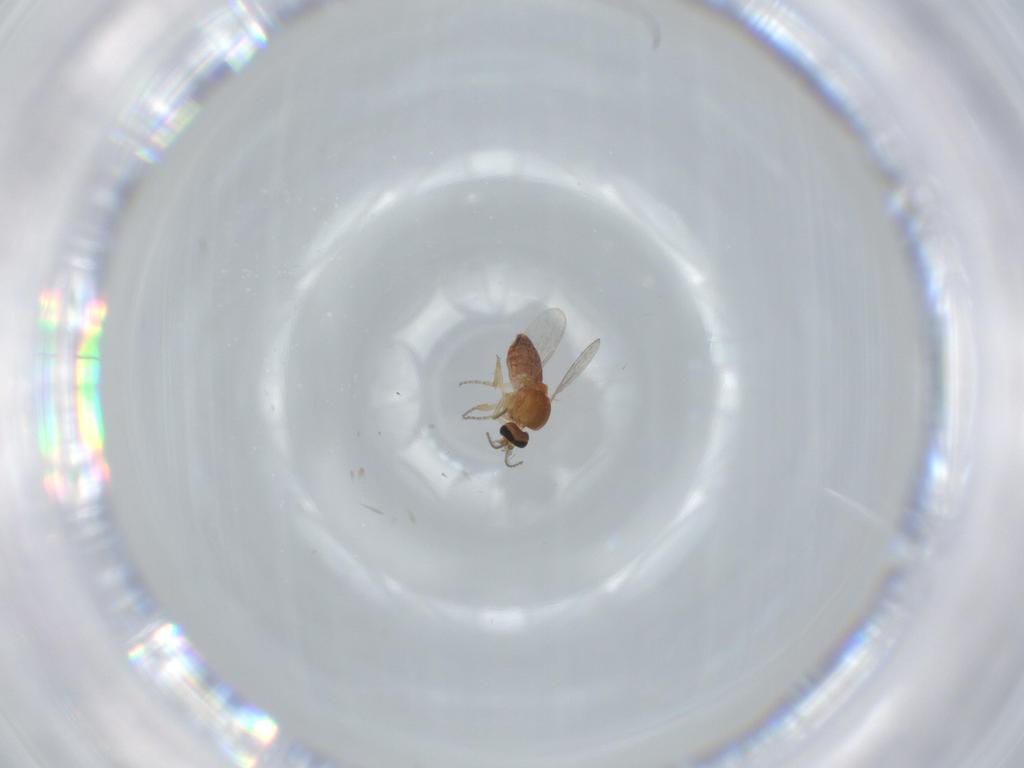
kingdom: Animalia
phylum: Arthropoda
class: Insecta
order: Diptera
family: Ceratopogonidae
